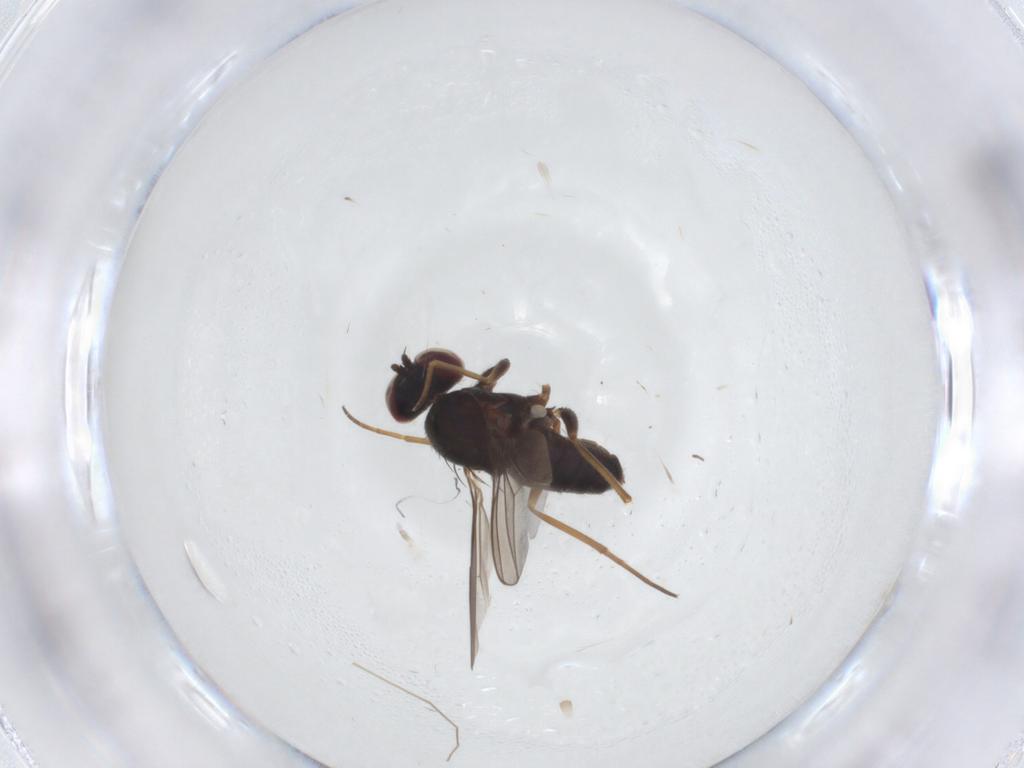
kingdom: Animalia
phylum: Arthropoda
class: Insecta
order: Diptera
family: Dolichopodidae
